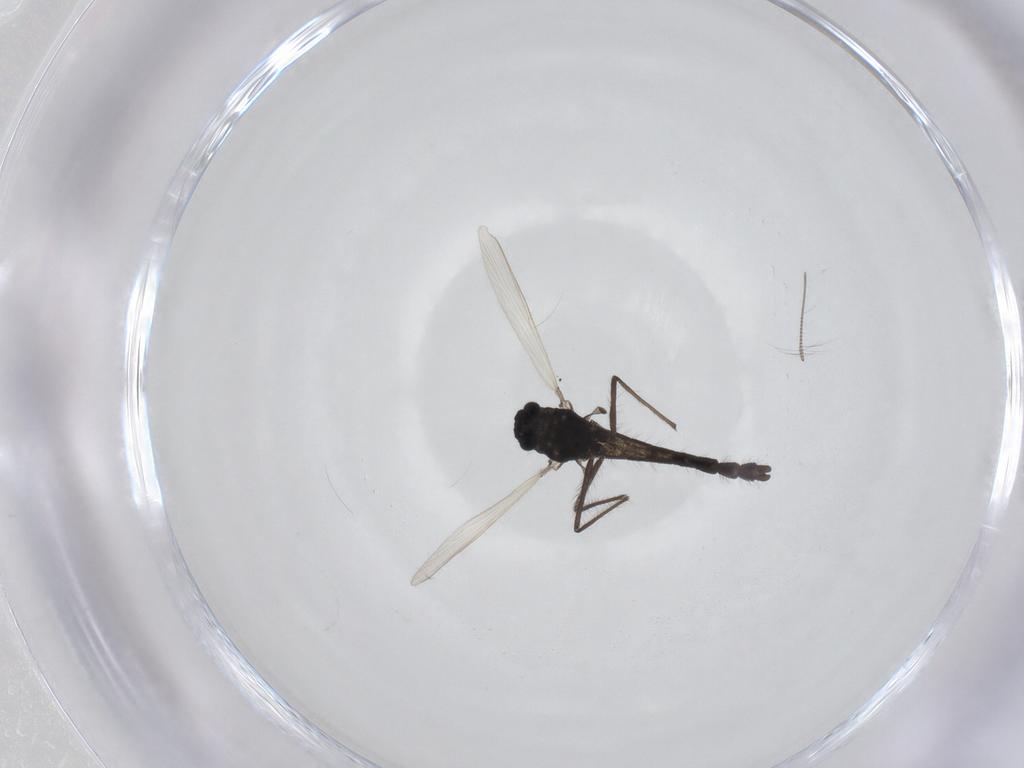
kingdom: Animalia
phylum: Arthropoda
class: Insecta
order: Diptera
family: Chironomidae
